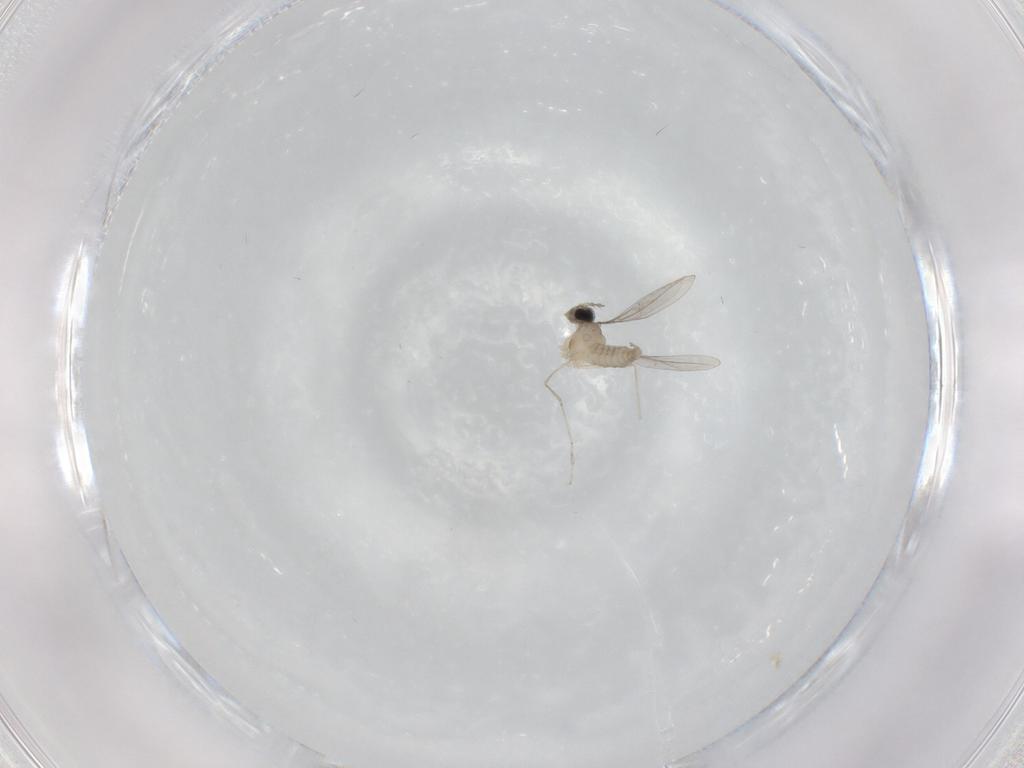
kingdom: Animalia
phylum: Arthropoda
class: Insecta
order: Diptera
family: Cecidomyiidae
